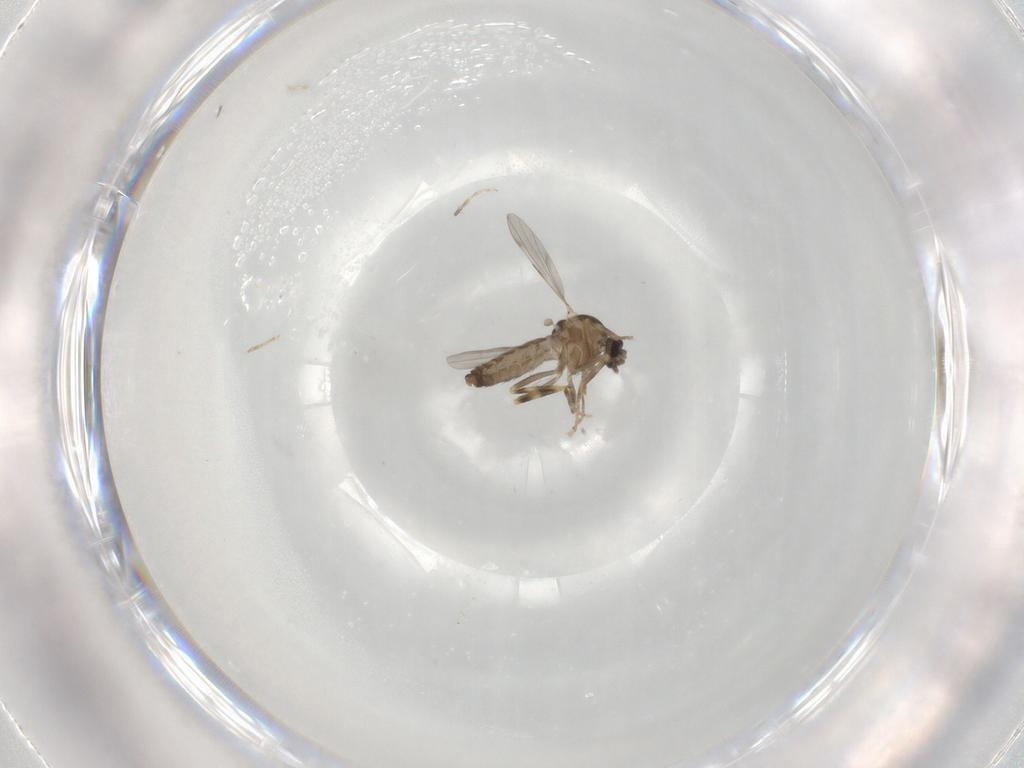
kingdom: Animalia
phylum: Arthropoda
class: Insecta
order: Diptera
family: Ceratopogonidae
